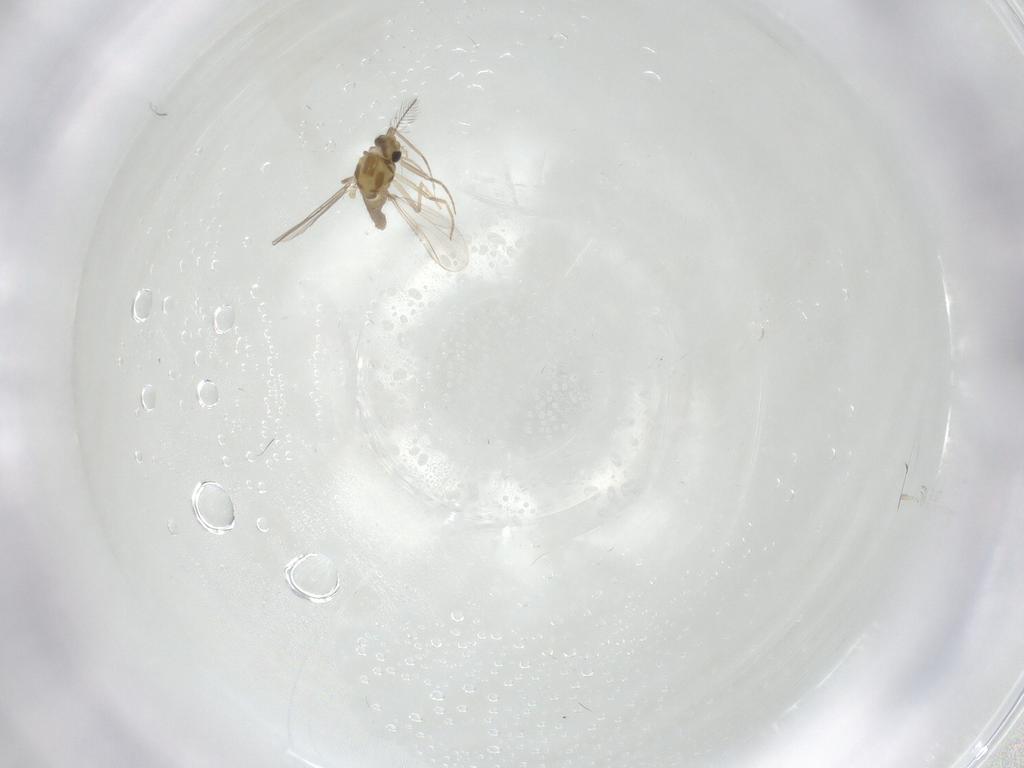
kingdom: Animalia
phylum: Arthropoda
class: Insecta
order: Diptera
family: Chironomidae
